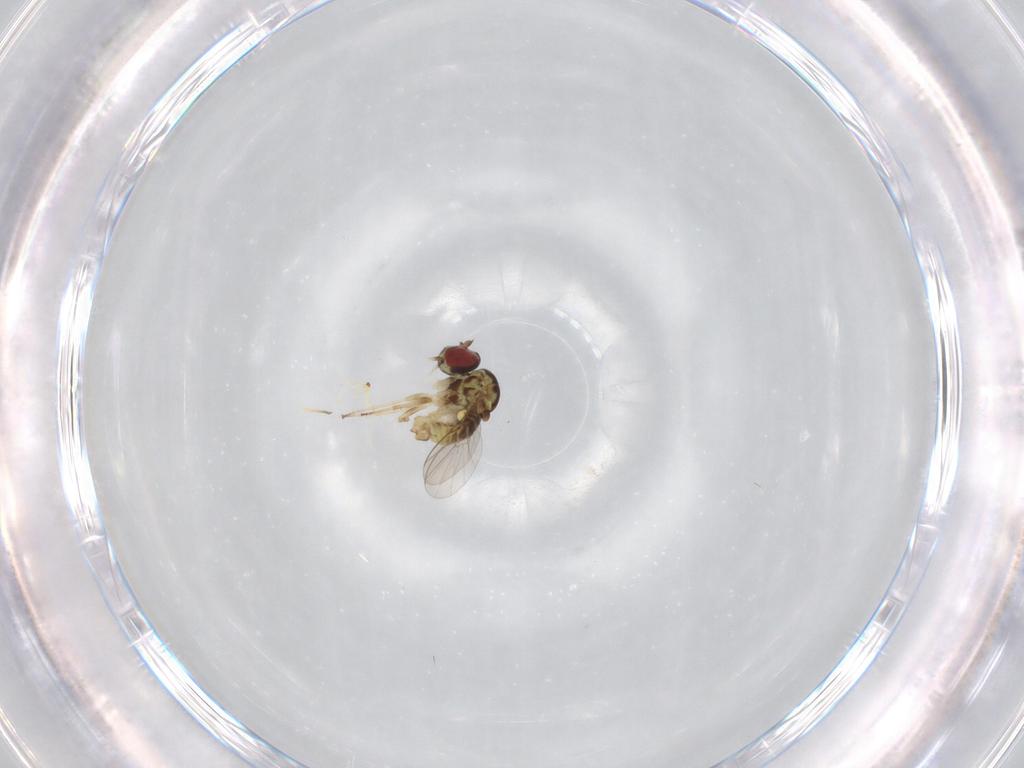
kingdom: Animalia
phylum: Arthropoda
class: Insecta
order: Diptera
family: Bombyliidae
